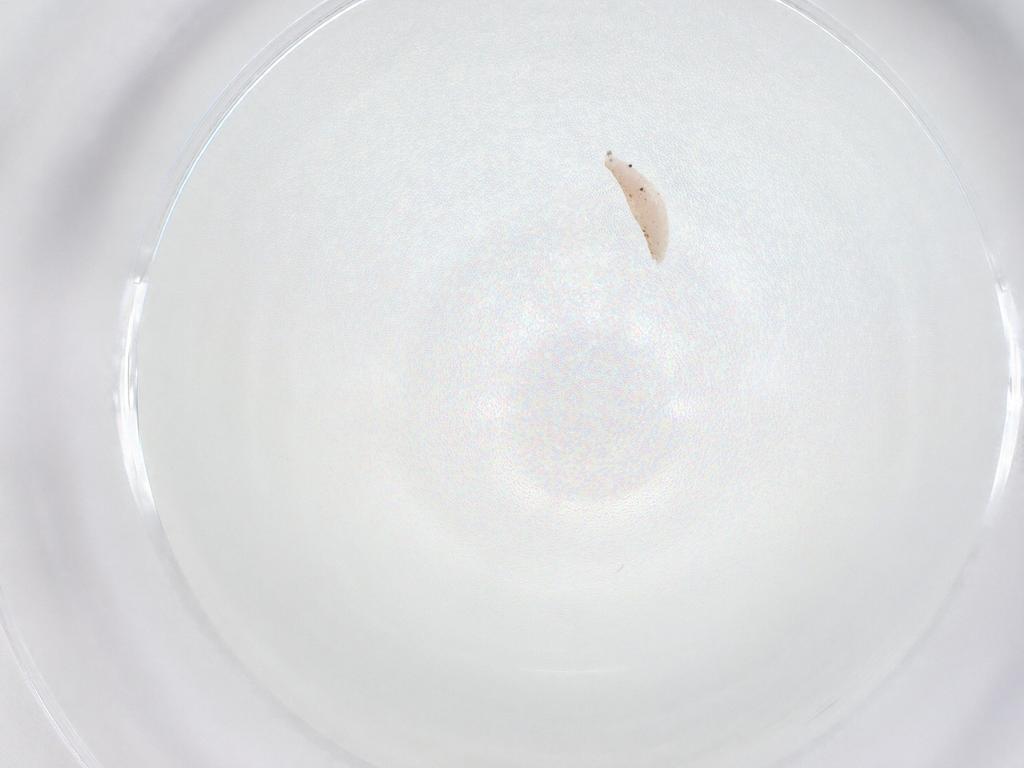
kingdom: Animalia
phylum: Arthropoda
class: Insecta
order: Diptera
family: Cecidomyiidae
